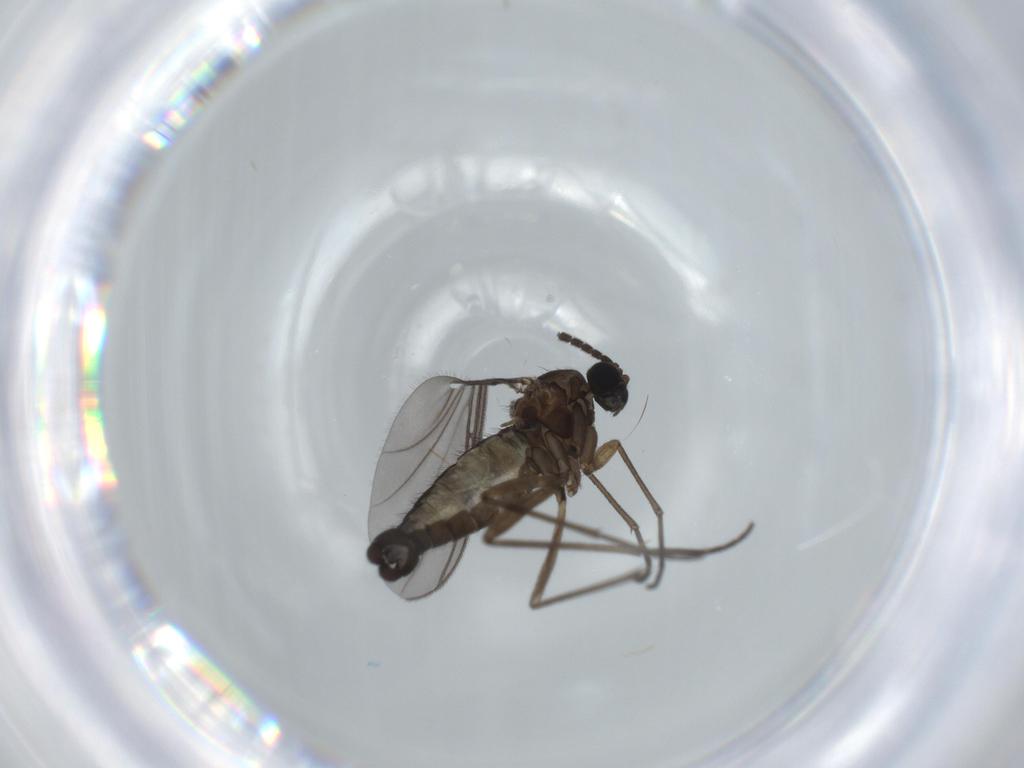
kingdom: Animalia
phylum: Arthropoda
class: Insecta
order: Diptera
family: Sciaridae
